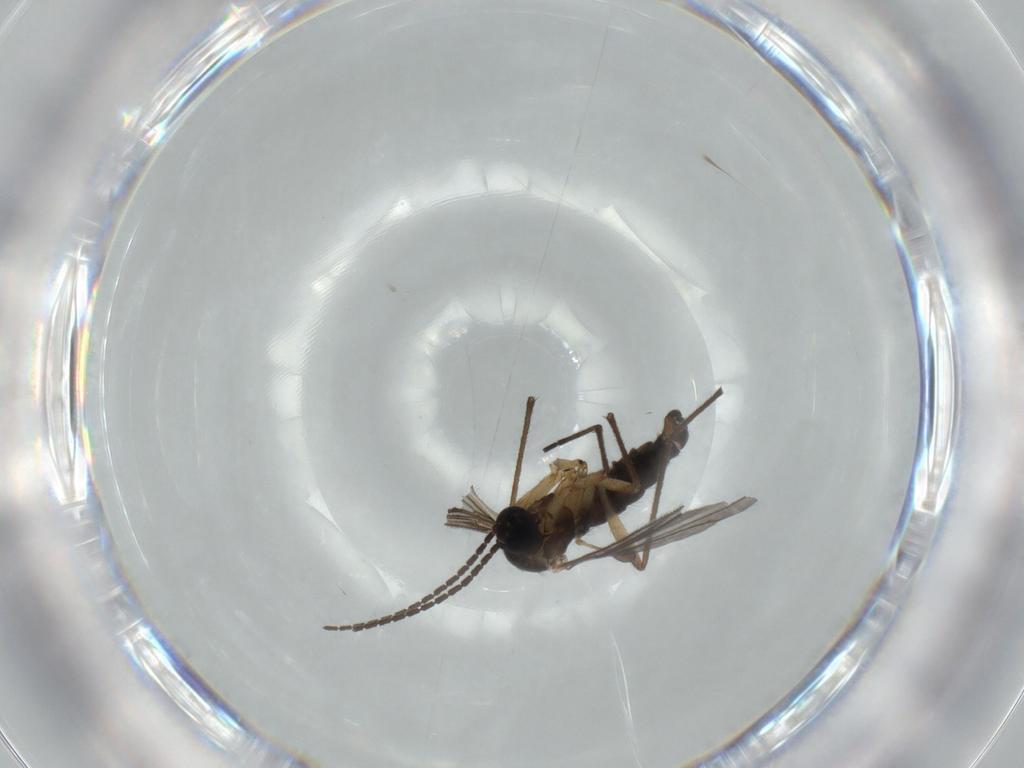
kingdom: Animalia
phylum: Arthropoda
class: Insecta
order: Diptera
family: Sciaridae
